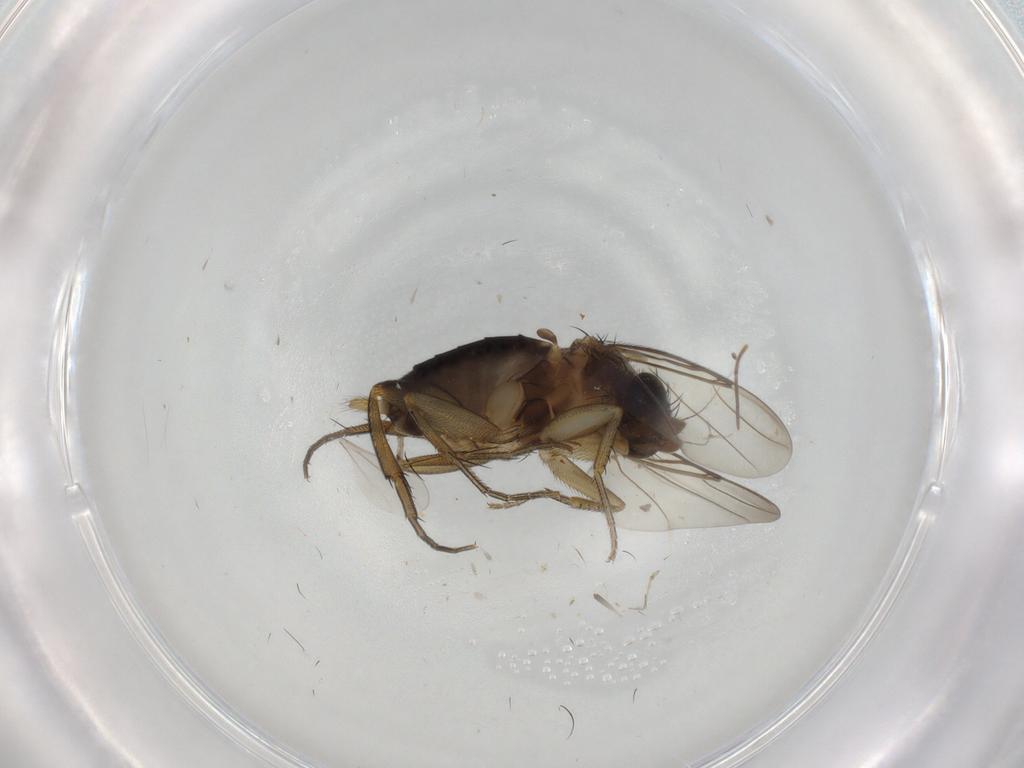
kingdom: Animalia
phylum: Arthropoda
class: Insecta
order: Diptera
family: Phoridae
